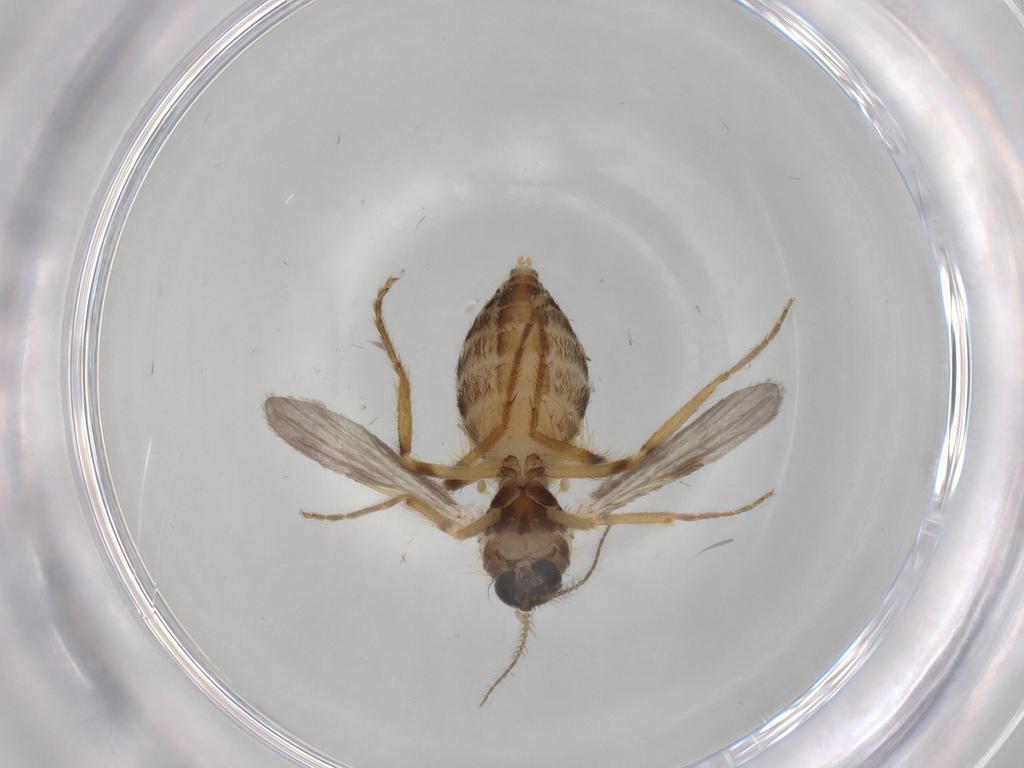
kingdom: Animalia
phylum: Arthropoda
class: Insecta
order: Diptera
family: Ceratopogonidae
